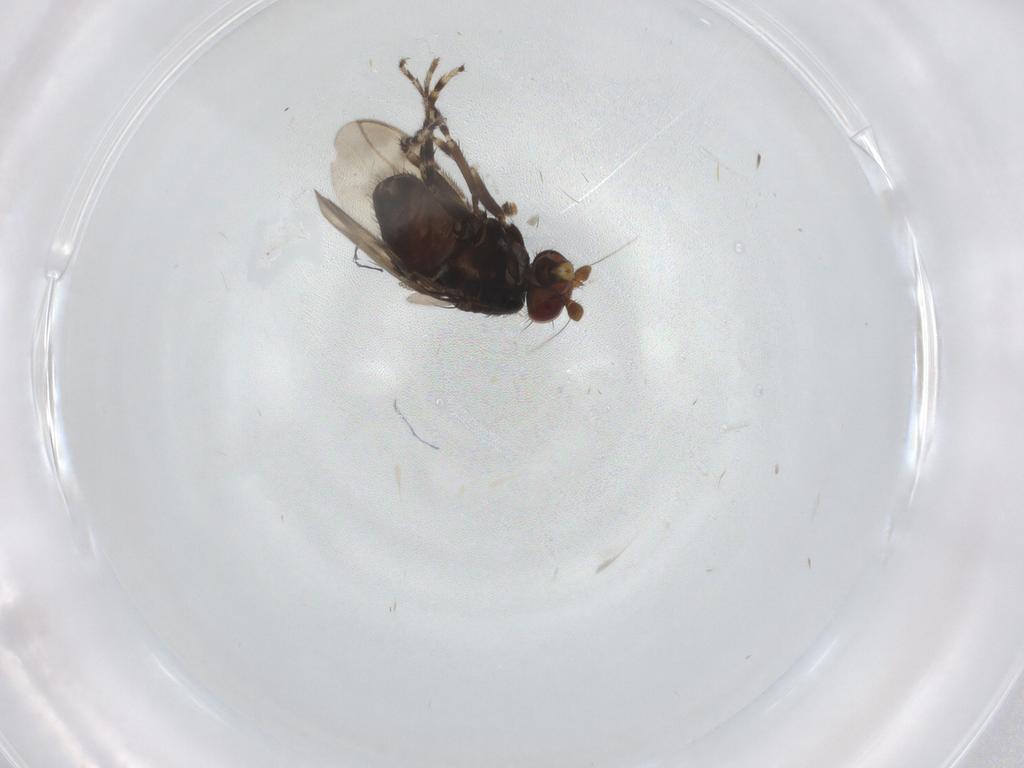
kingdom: Animalia
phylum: Arthropoda
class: Insecta
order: Diptera
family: Sphaeroceridae
